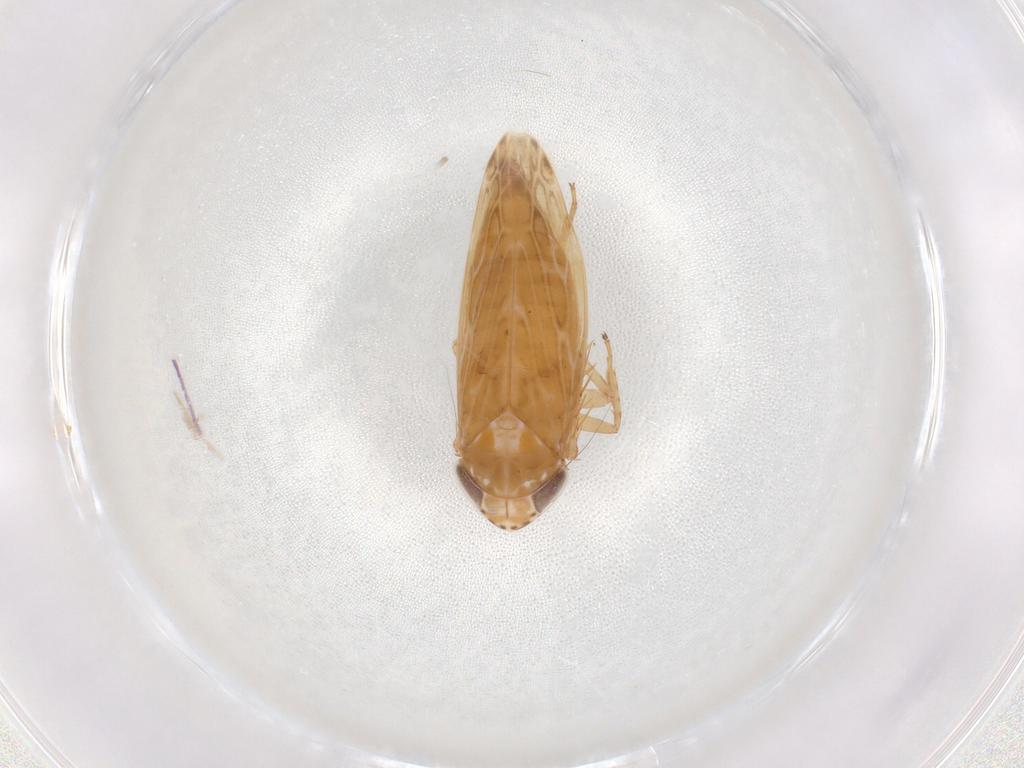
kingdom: Animalia
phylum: Arthropoda
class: Insecta
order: Hemiptera
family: Cicadellidae
